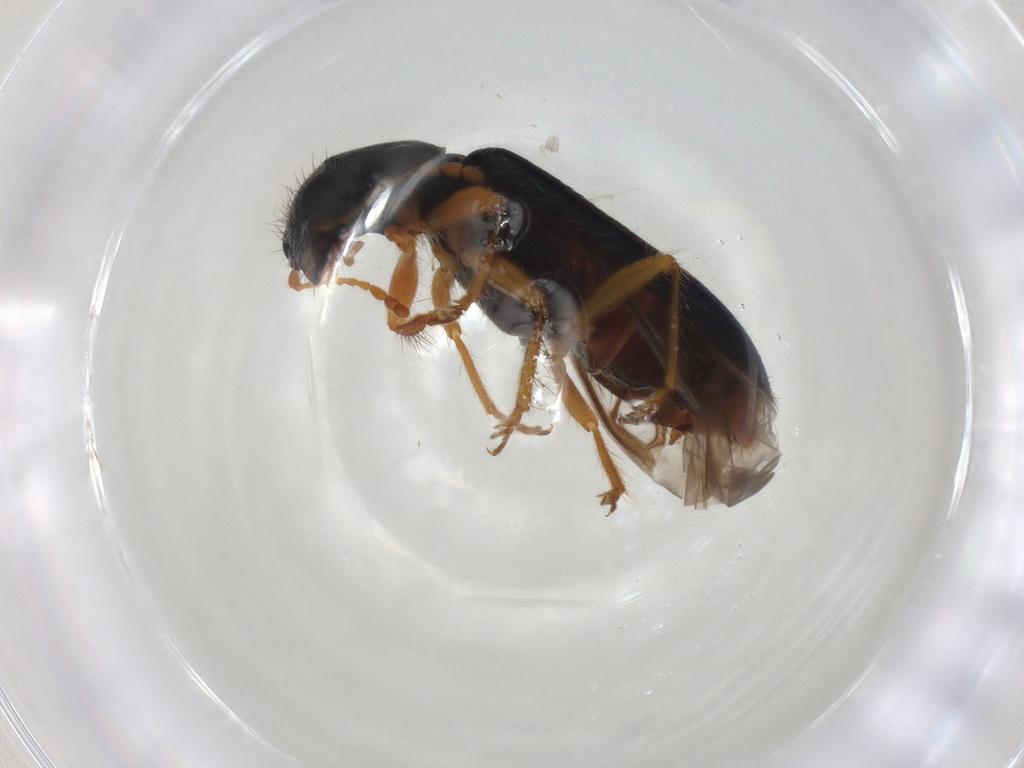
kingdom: Animalia
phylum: Arthropoda
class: Insecta
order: Coleoptera
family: Cleridae
